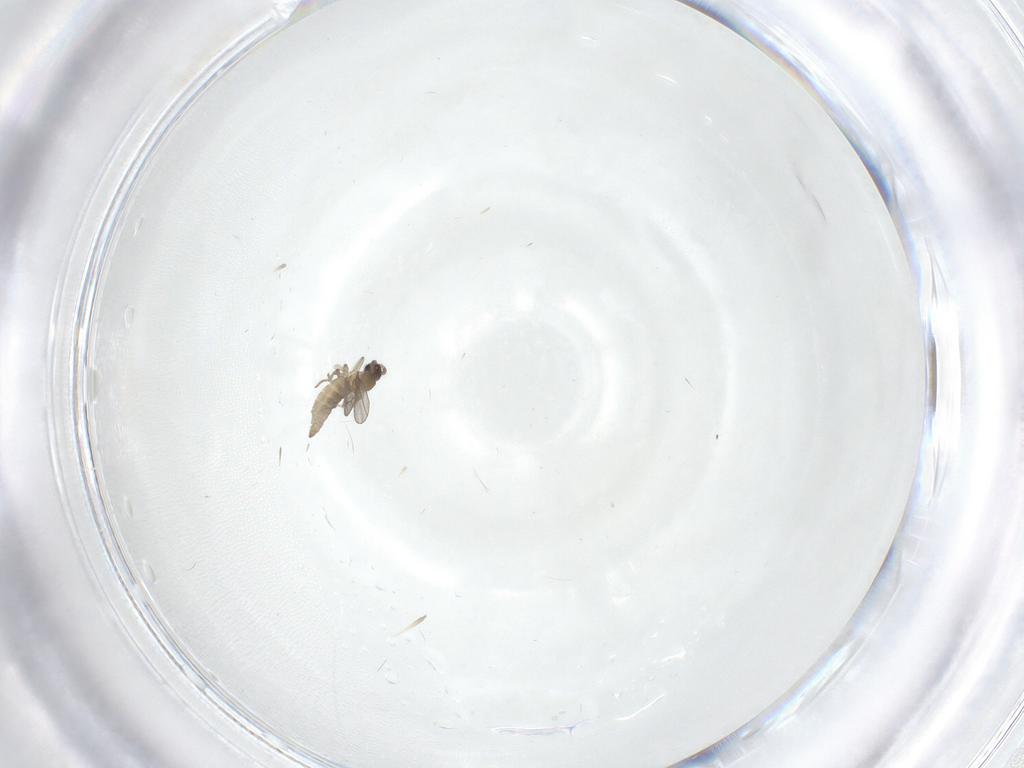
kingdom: Animalia
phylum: Arthropoda
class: Insecta
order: Diptera
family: Cecidomyiidae
